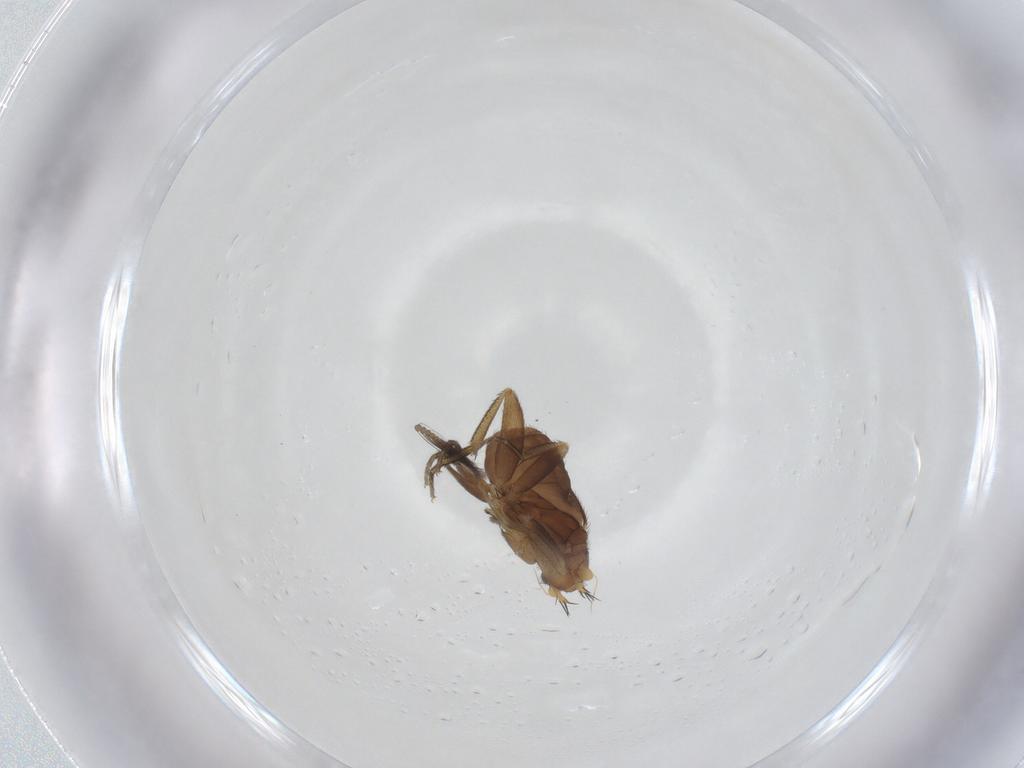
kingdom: Animalia
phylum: Arthropoda
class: Insecta
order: Diptera
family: Phoridae
